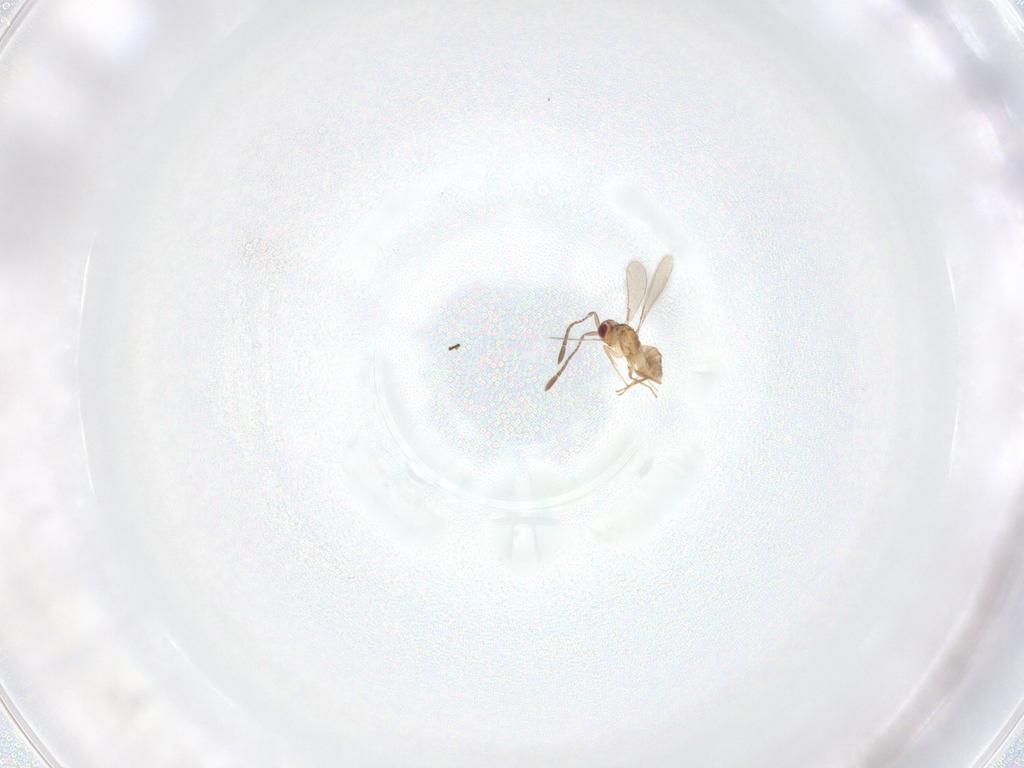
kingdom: Animalia
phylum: Arthropoda
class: Insecta
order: Hymenoptera
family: Mymaridae
